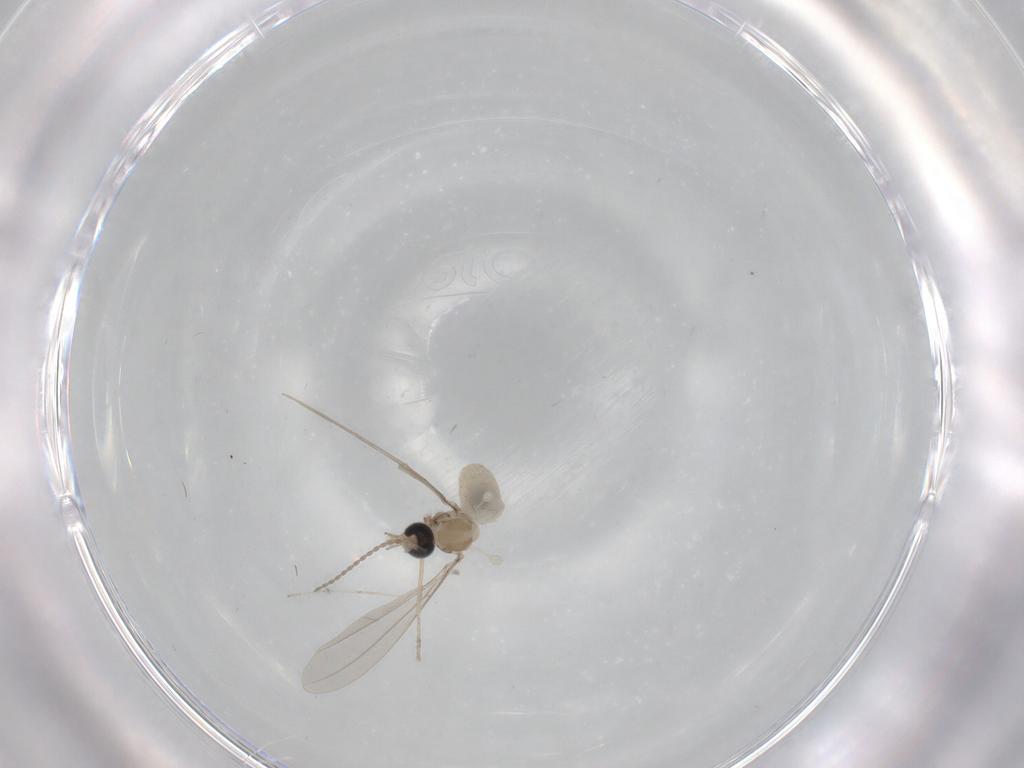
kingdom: Animalia
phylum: Arthropoda
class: Insecta
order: Diptera
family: Cecidomyiidae
